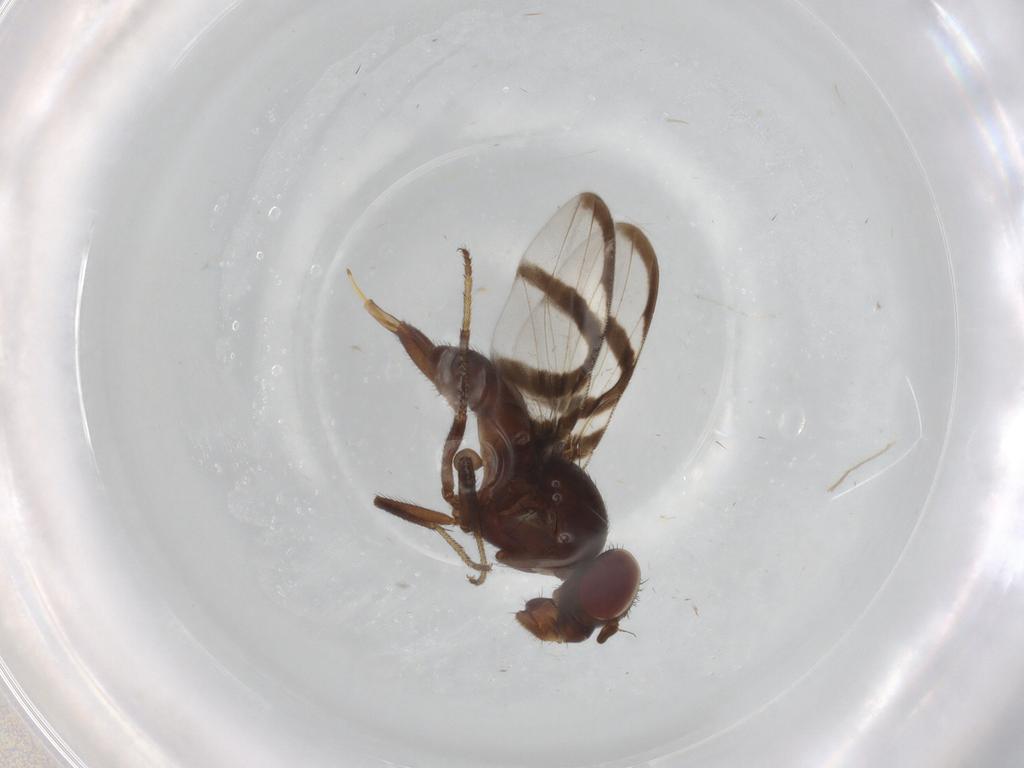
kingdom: Animalia
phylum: Arthropoda
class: Insecta
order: Diptera
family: Ulidiidae
